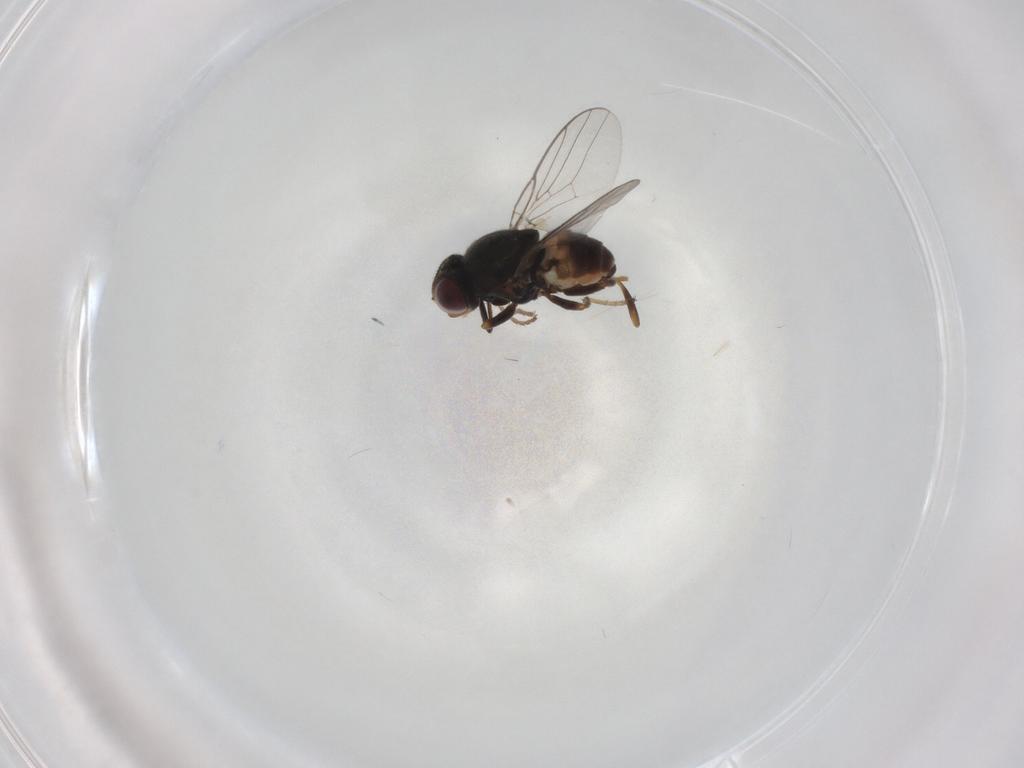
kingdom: Animalia
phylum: Arthropoda
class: Insecta
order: Diptera
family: Chloropidae
